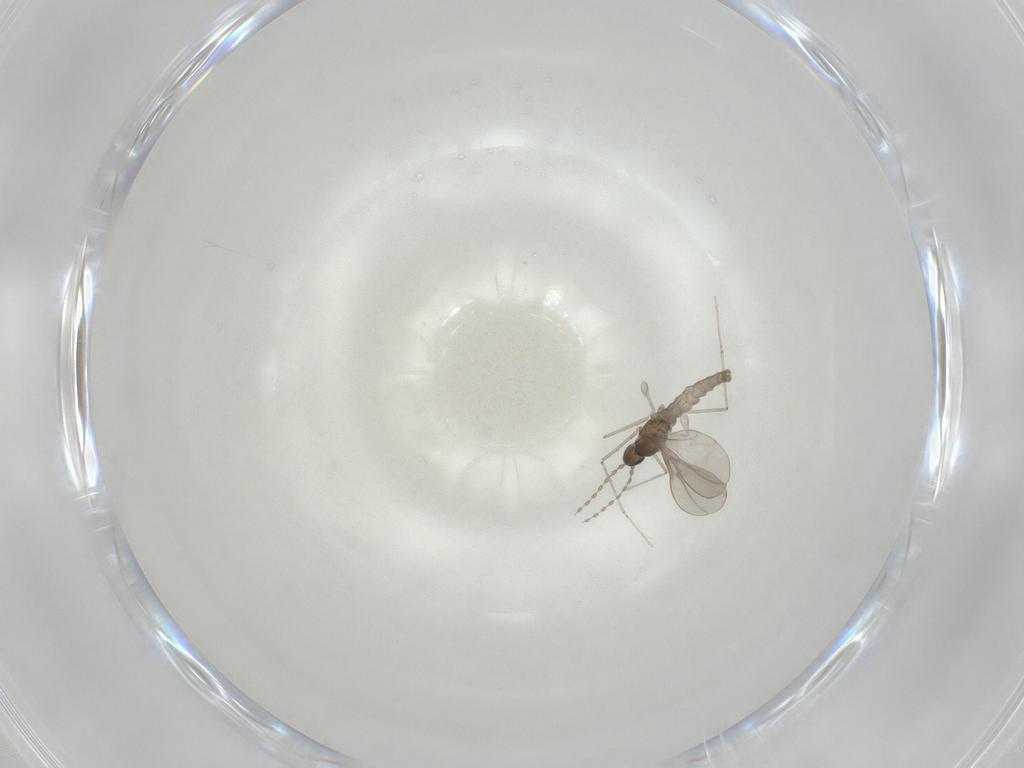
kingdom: Animalia
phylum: Arthropoda
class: Insecta
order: Diptera
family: Cecidomyiidae
